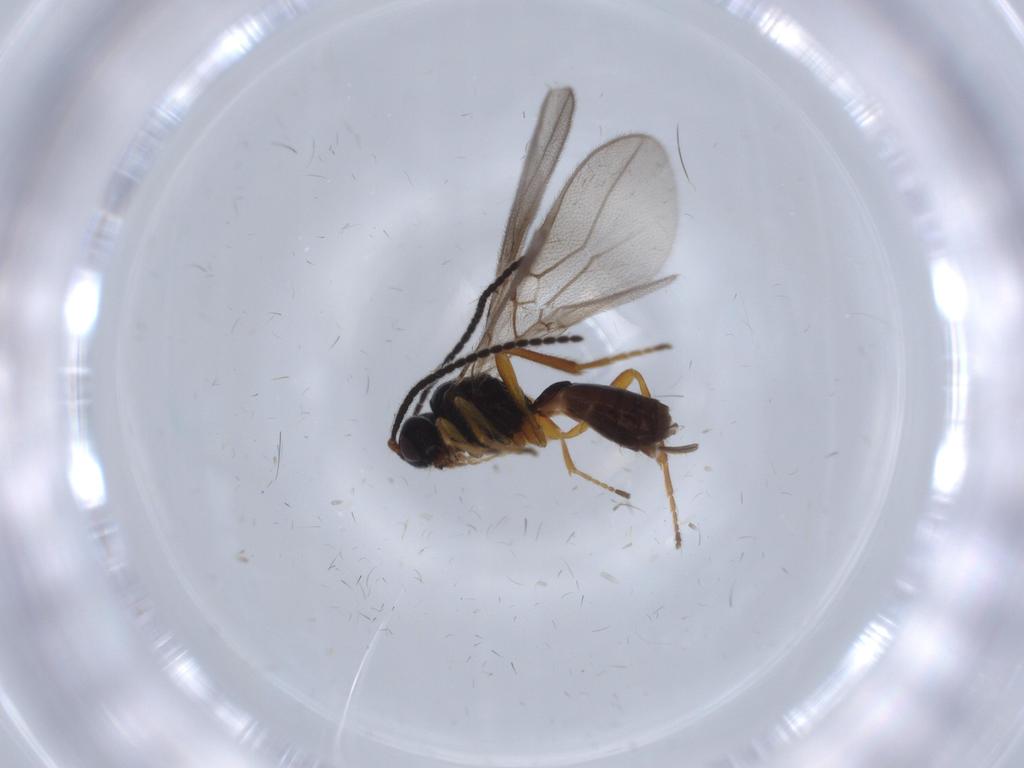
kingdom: Animalia
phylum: Arthropoda
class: Insecta
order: Hymenoptera
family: Braconidae
